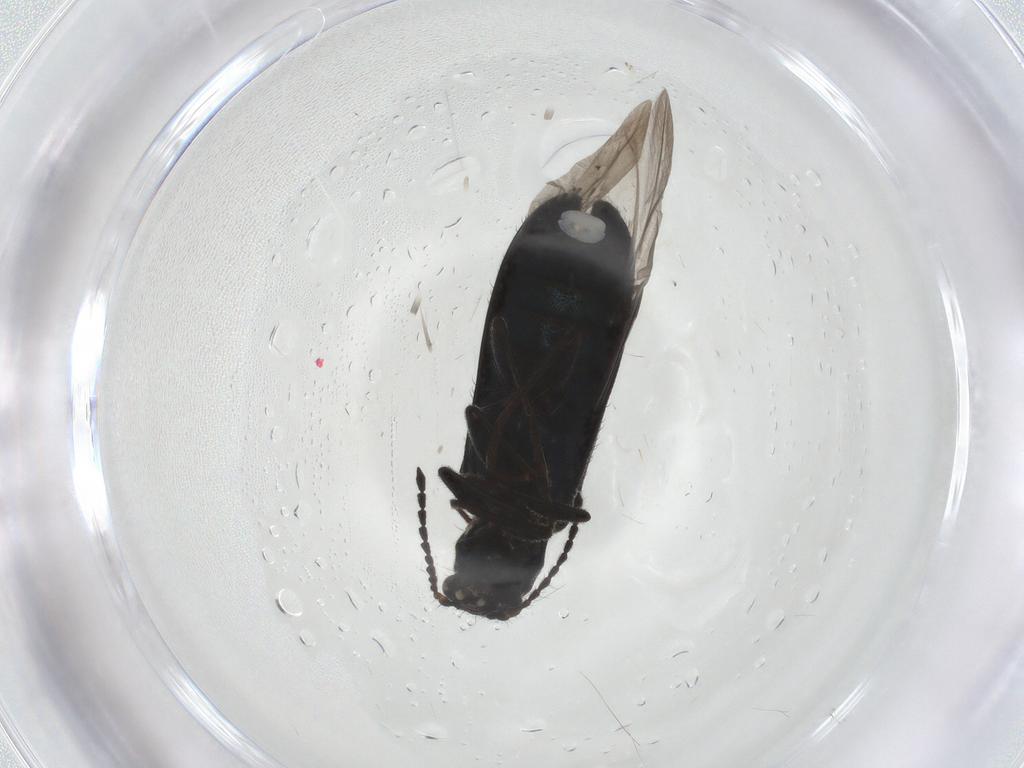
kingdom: Animalia
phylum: Arthropoda
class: Insecta
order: Coleoptera
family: Melyridae
